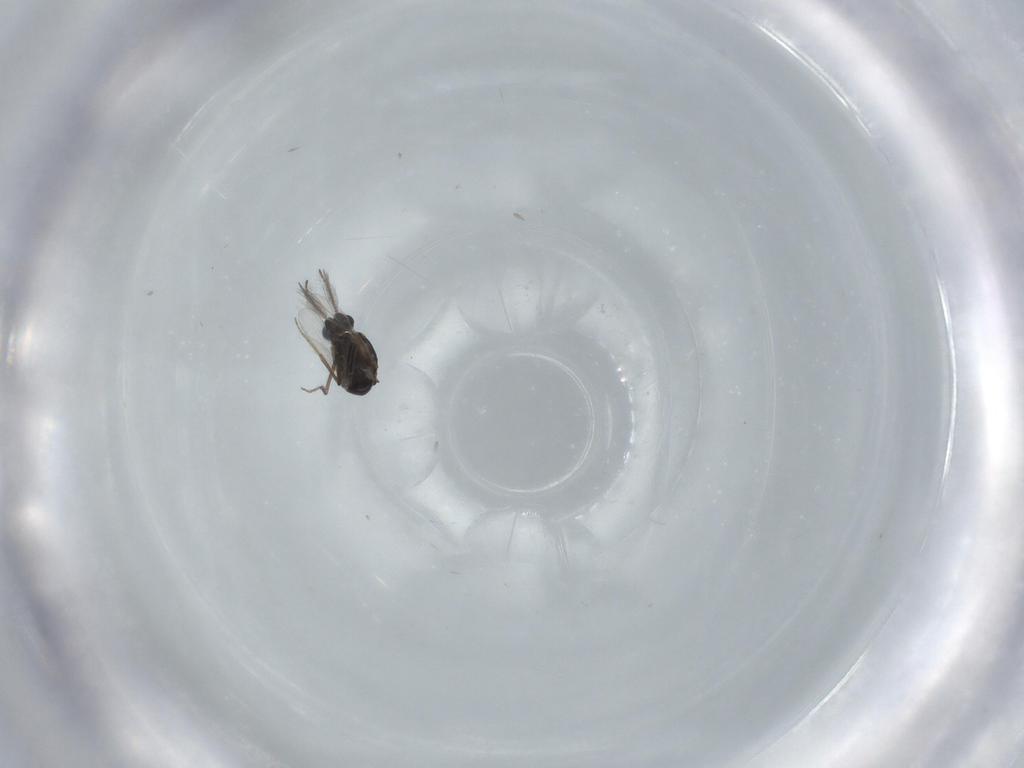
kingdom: Animalia
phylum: Arthropoda
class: Insecta
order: Diptera
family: Ceratopogonidae
